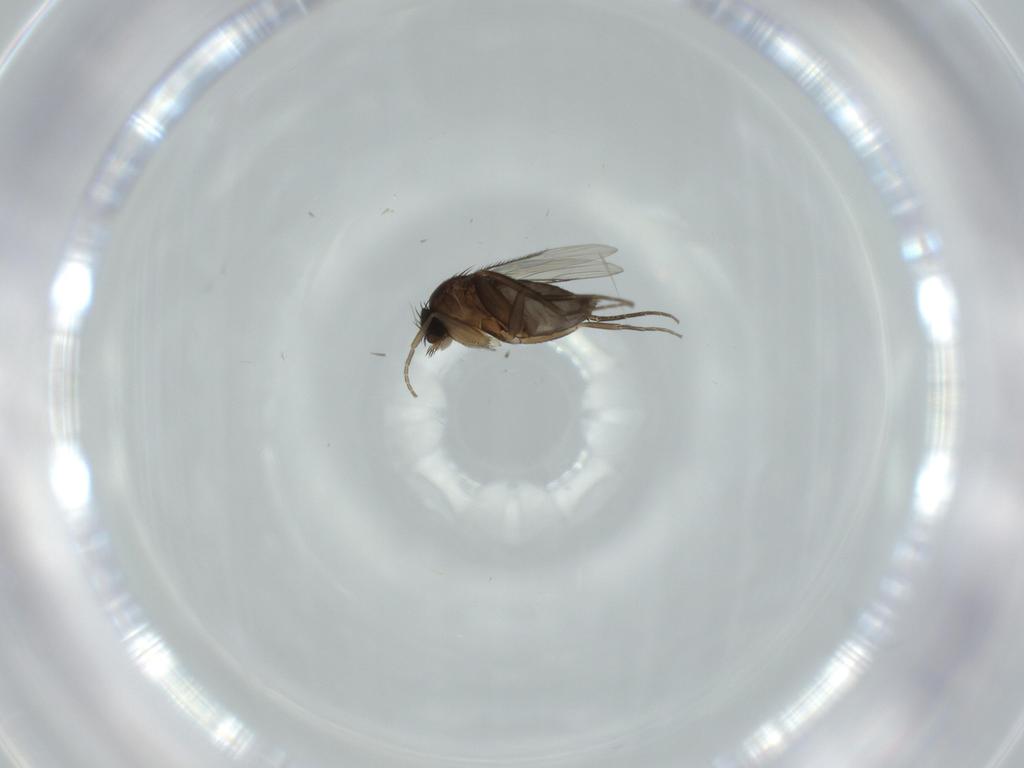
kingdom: Animalia
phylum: Arthropoda
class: Insecta
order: Diptera
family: Phoridae
